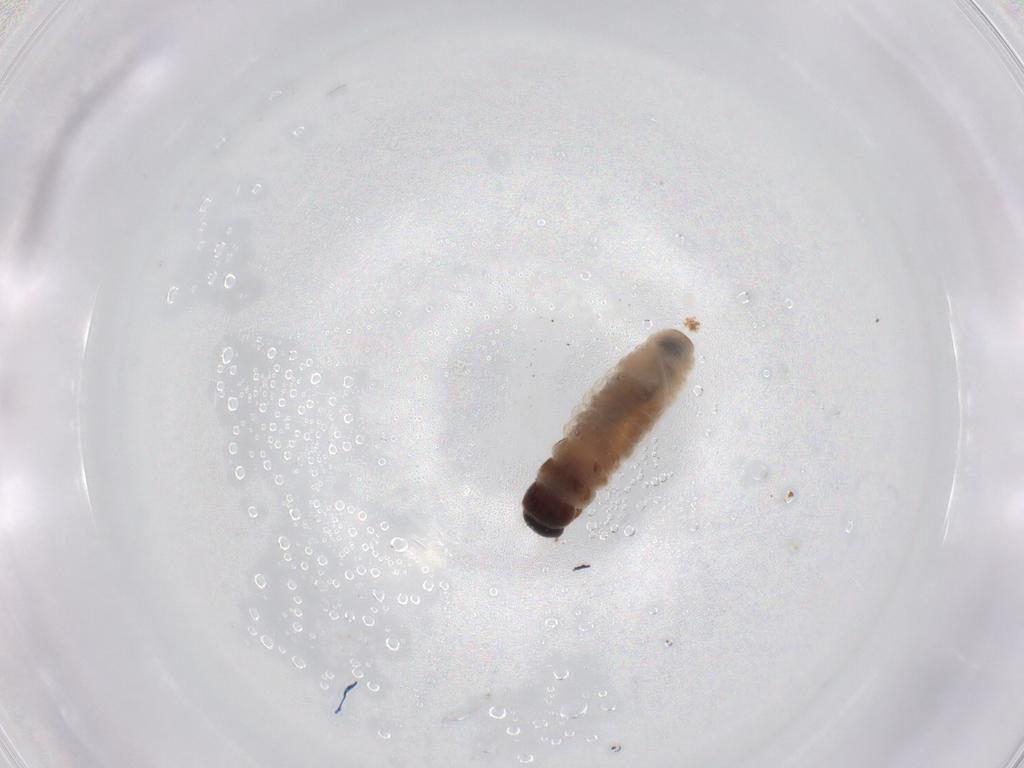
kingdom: Animalia
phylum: Arthropoda
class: Insecta
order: Lepidoptera
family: Psychidae
